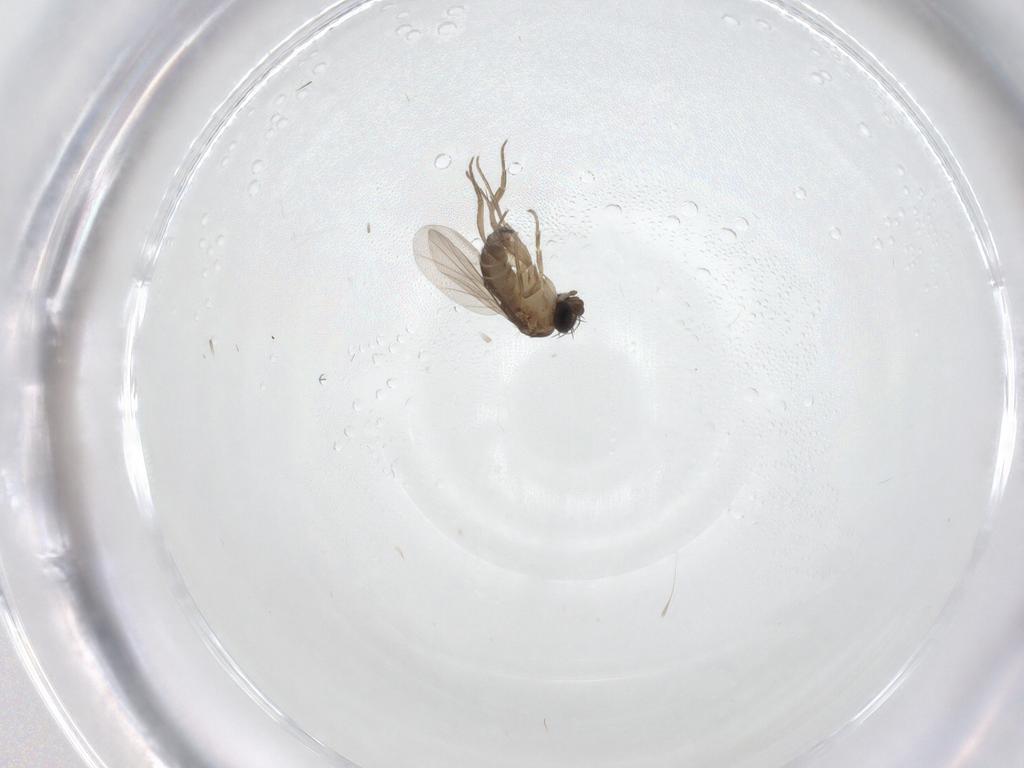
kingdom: Animalia
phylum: Arthropoda
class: Insecta
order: Diptera
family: Phoridae
